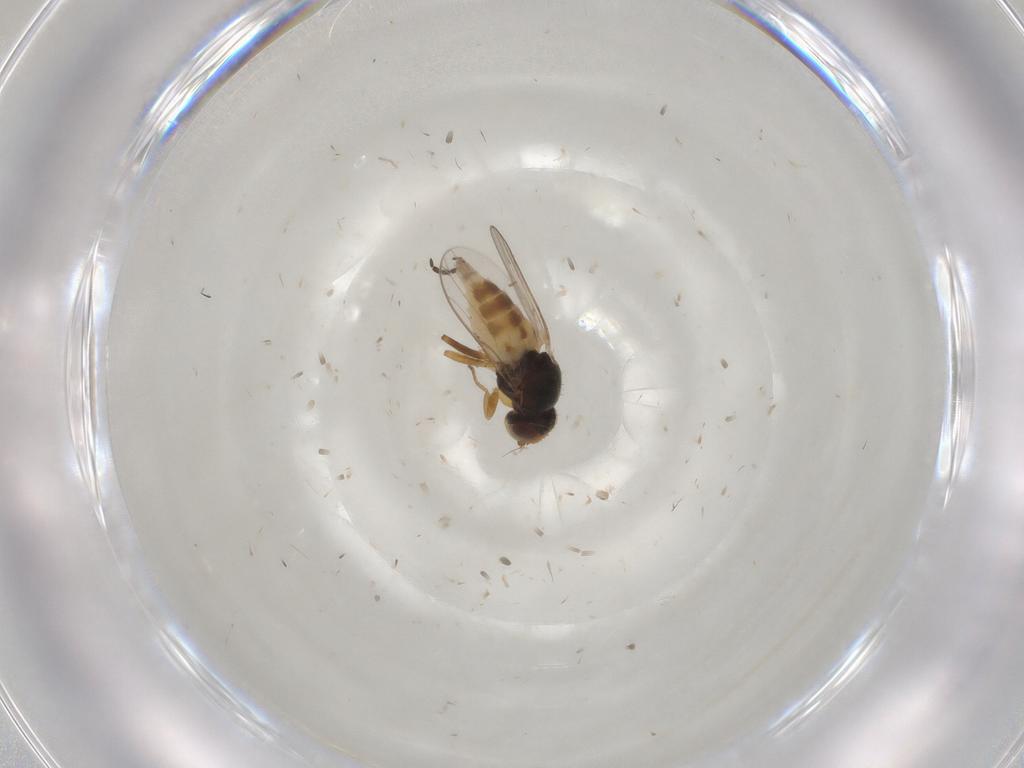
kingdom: Animalia
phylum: Arthropoda
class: Insecta
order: Diptera
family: Chloropidae
